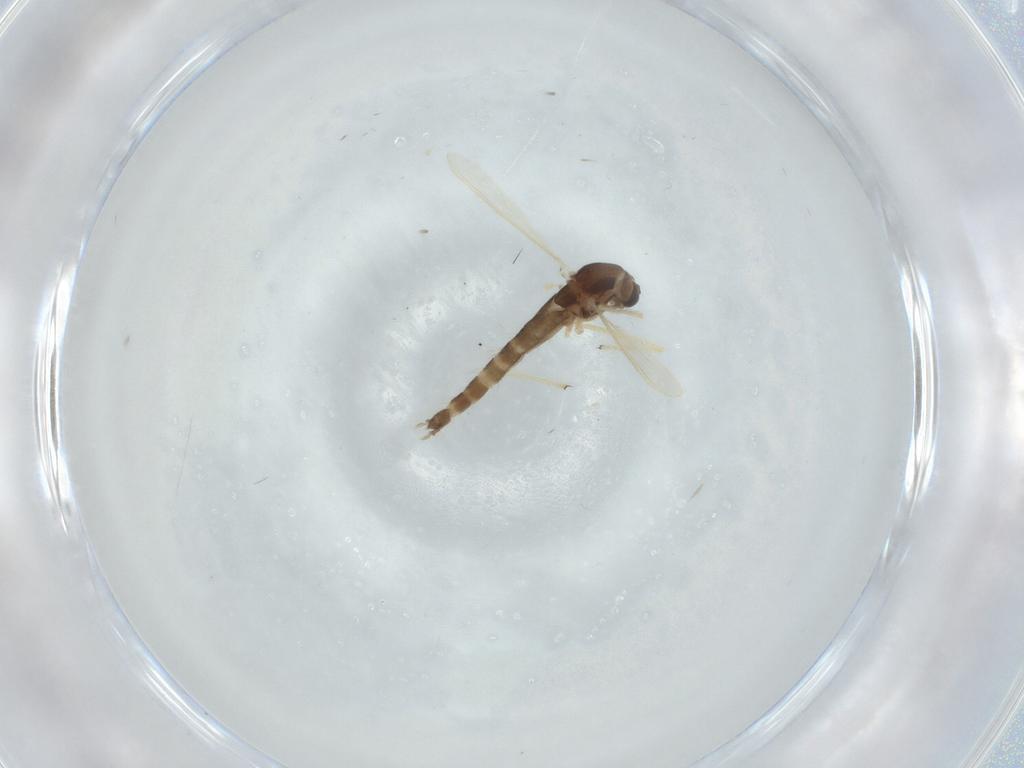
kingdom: Animalia
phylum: Arthropoda
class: Insecta
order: Diptera
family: Chironomidae
